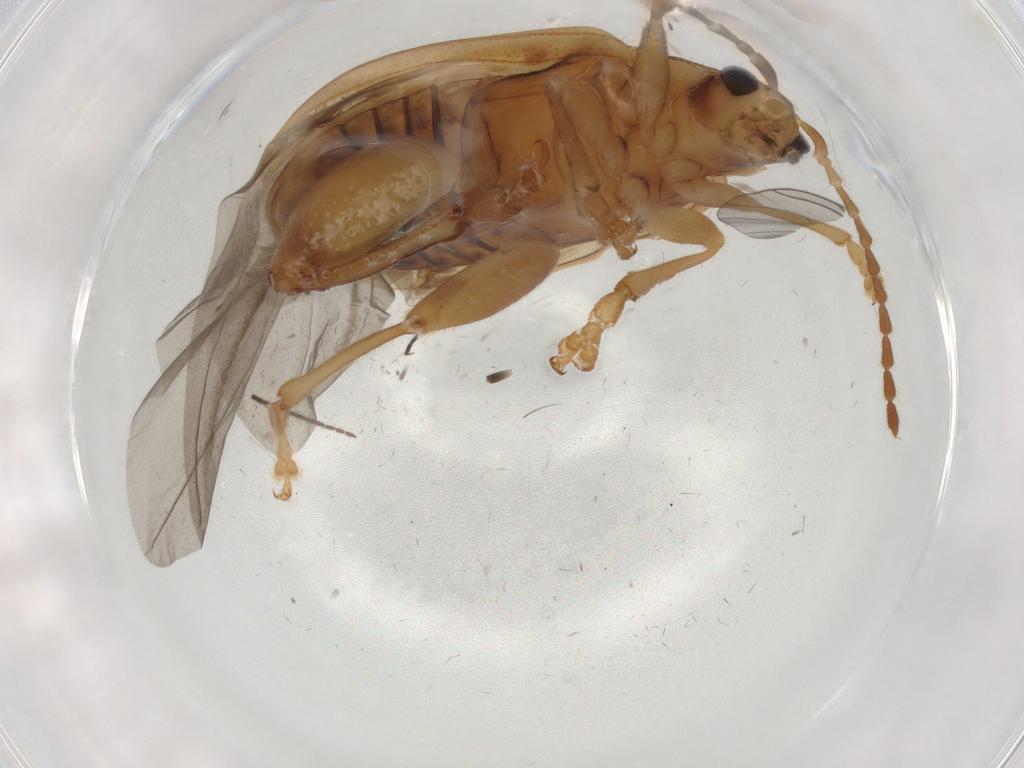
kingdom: Animalia
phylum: Arthropoda
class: Insecta
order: Coleoptera
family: Chrysomelidae
